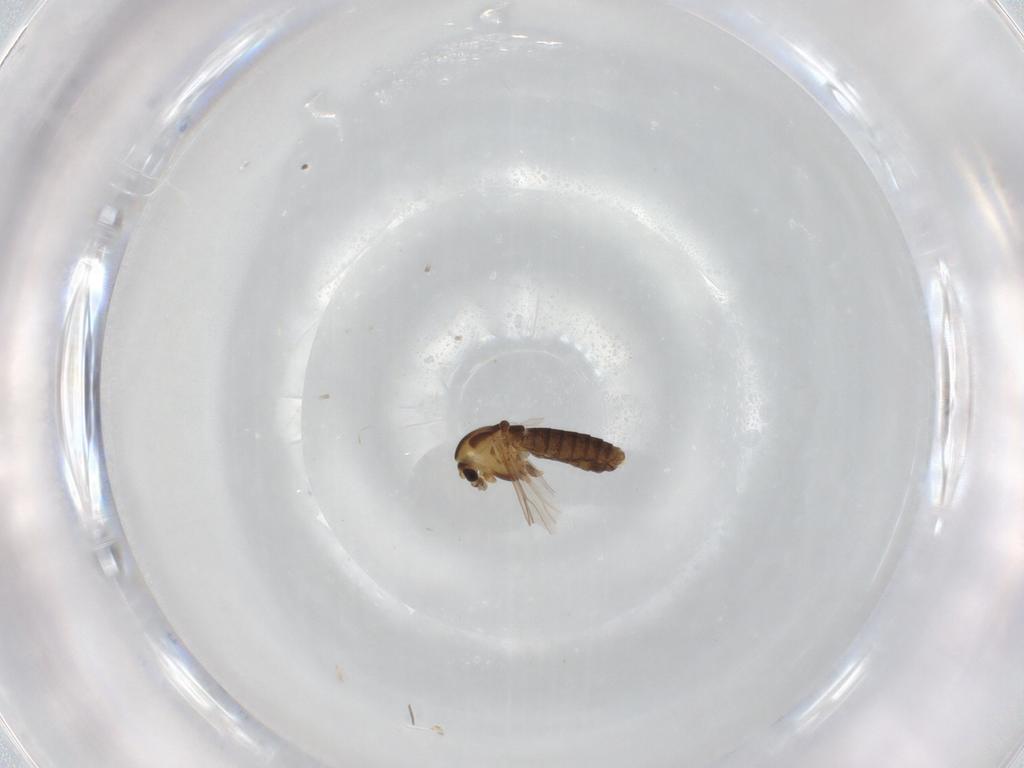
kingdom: Animalia
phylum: Arthropoda
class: Insecta
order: Diptera
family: Chironomidae
